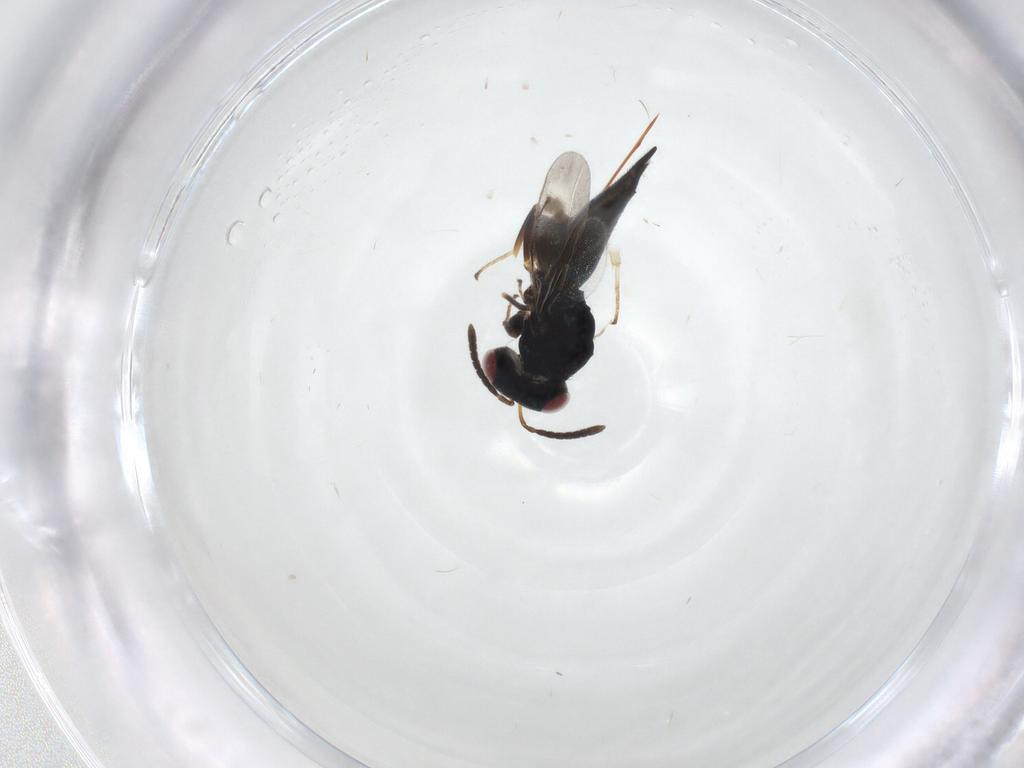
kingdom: Animalia
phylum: Arthropoda
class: Insecta
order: Hymenoptera
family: Pteromalidae
